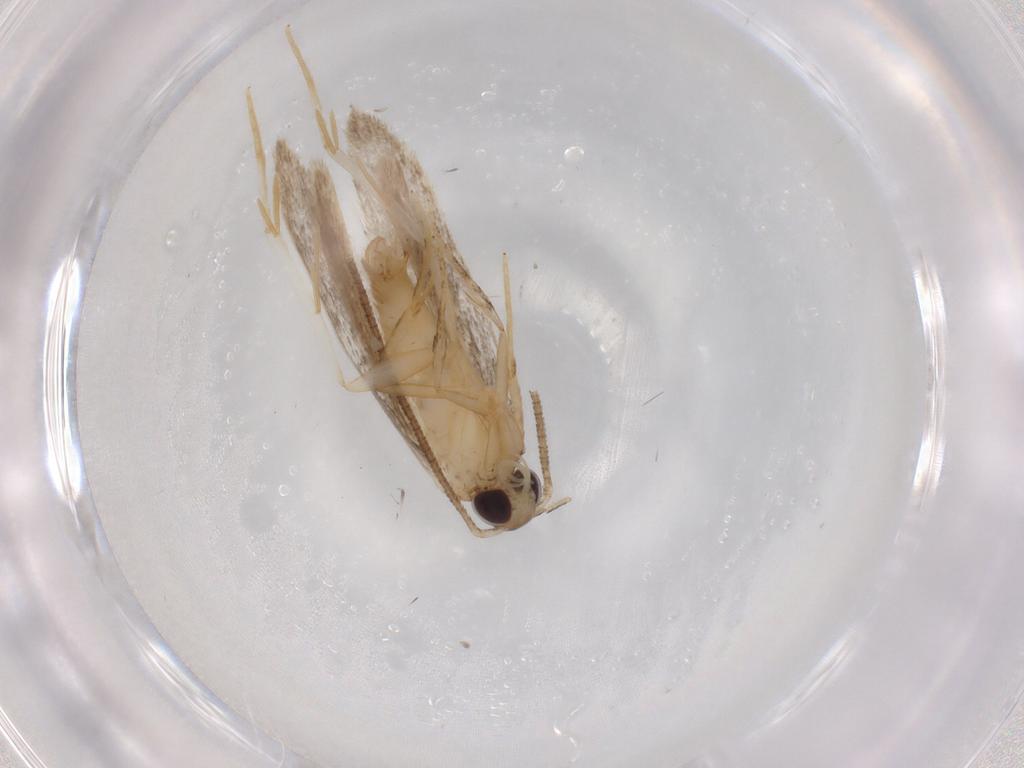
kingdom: Animalia
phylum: Arthropoda
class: Insecta
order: Lepidoptera
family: Autostichidae
